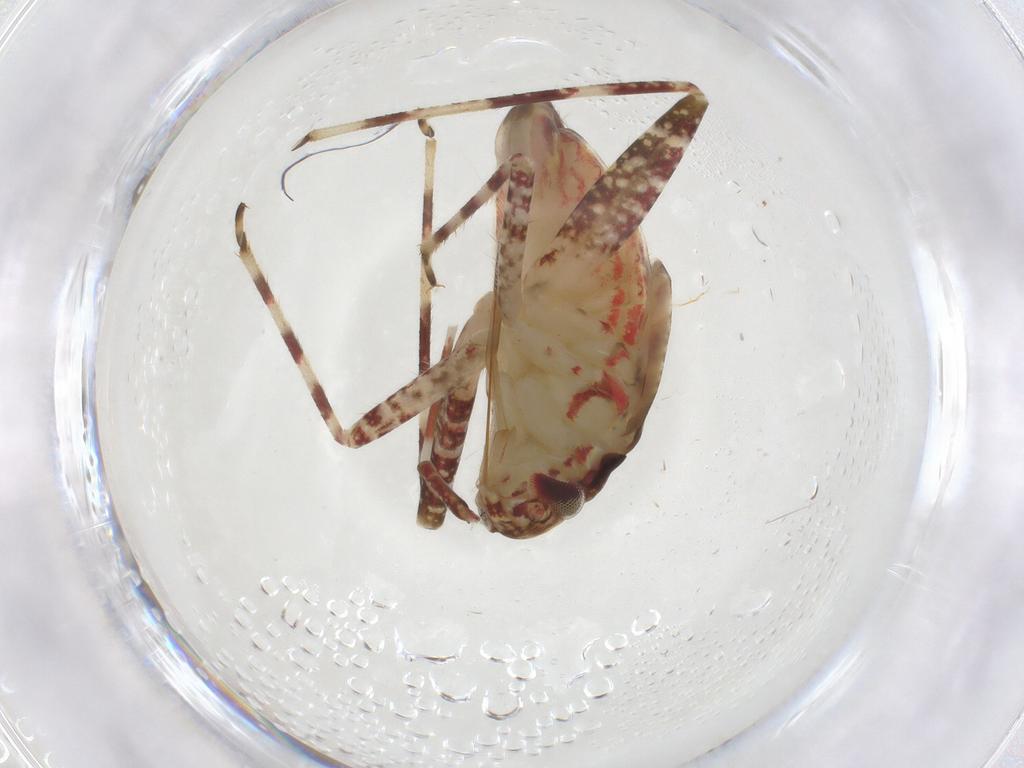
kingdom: Animalia
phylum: Arthropoda
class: Insecta
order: Hemiptera
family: Miridae
